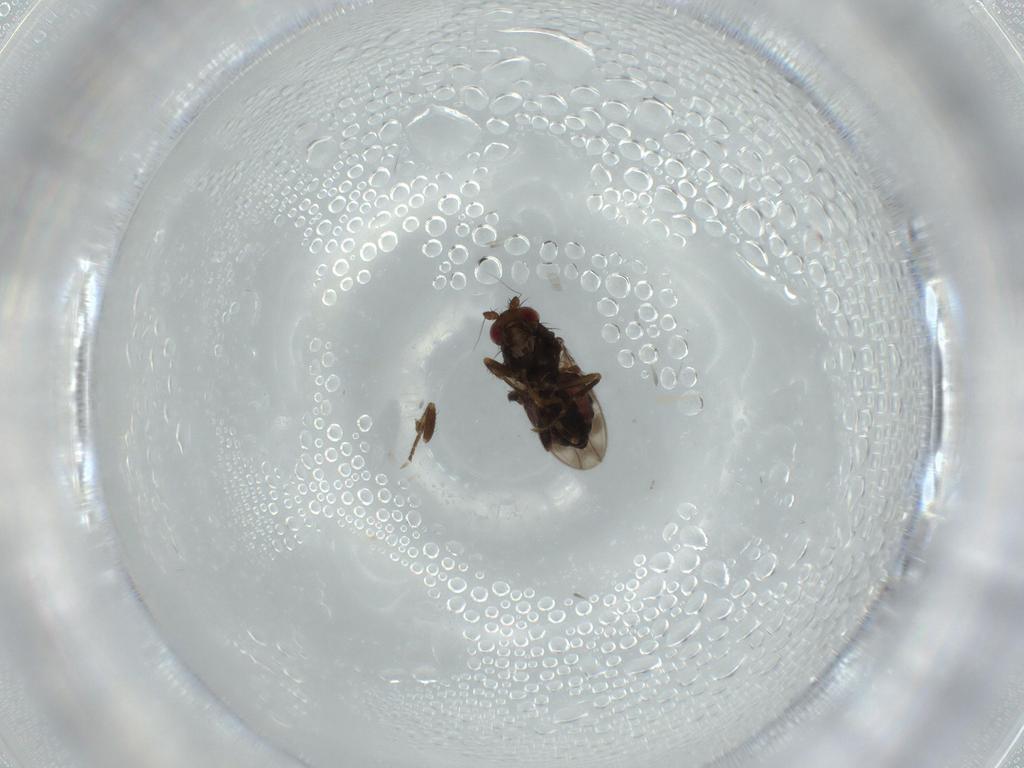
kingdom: Animalia
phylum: Arthropoda
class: Insecta
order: Diptera
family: Sphaeroceridae
